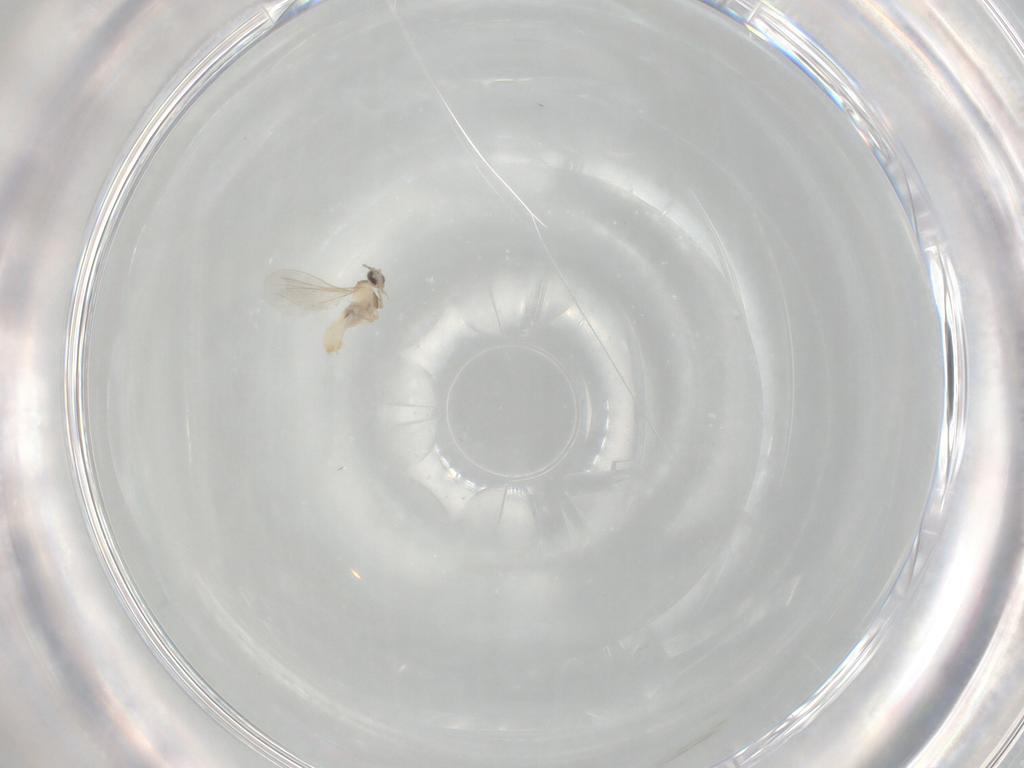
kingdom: Animalia
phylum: Arthropoda
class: Insecta
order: Diptera
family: Cecidomyiidae
